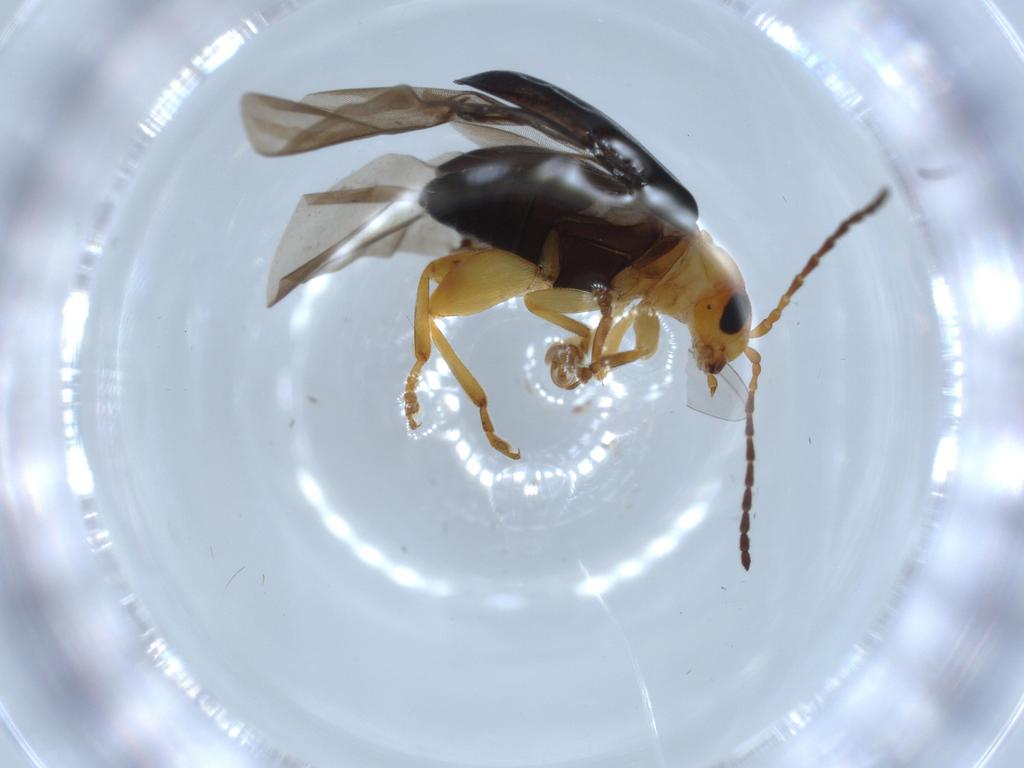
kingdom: Animalia
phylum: Arthropoda
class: Insecta
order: Coleoptera
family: Chrysomelidae
